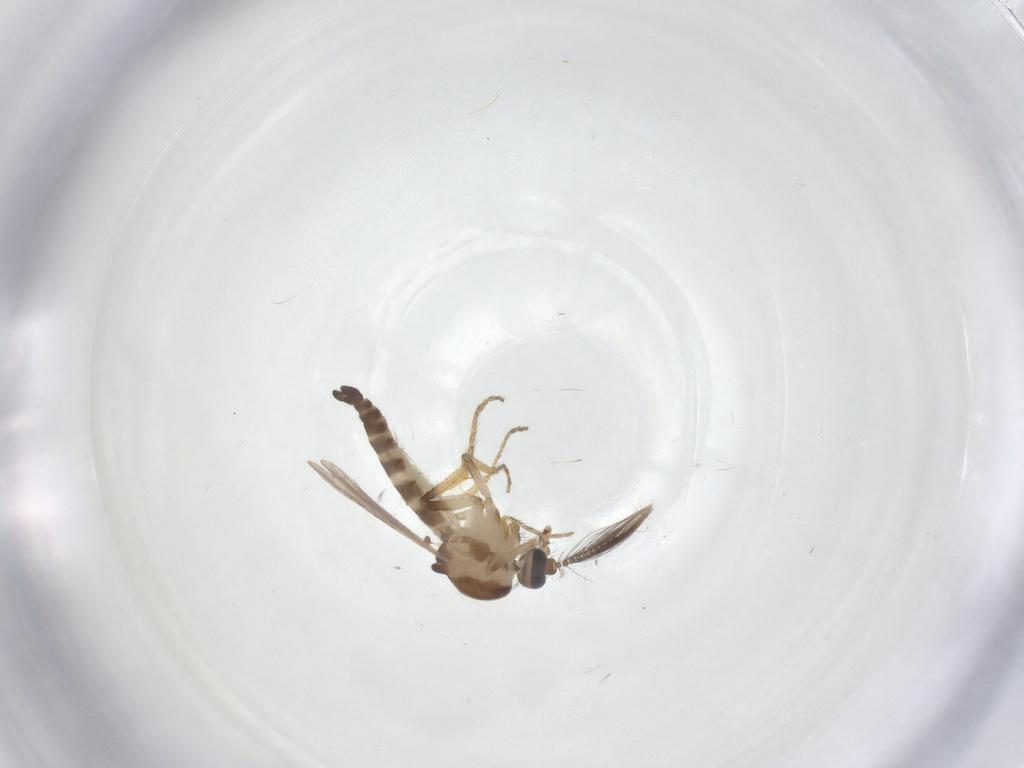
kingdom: Animalia
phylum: Arthropoda
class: Insecta
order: Diptera
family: Ceratopogonidae
